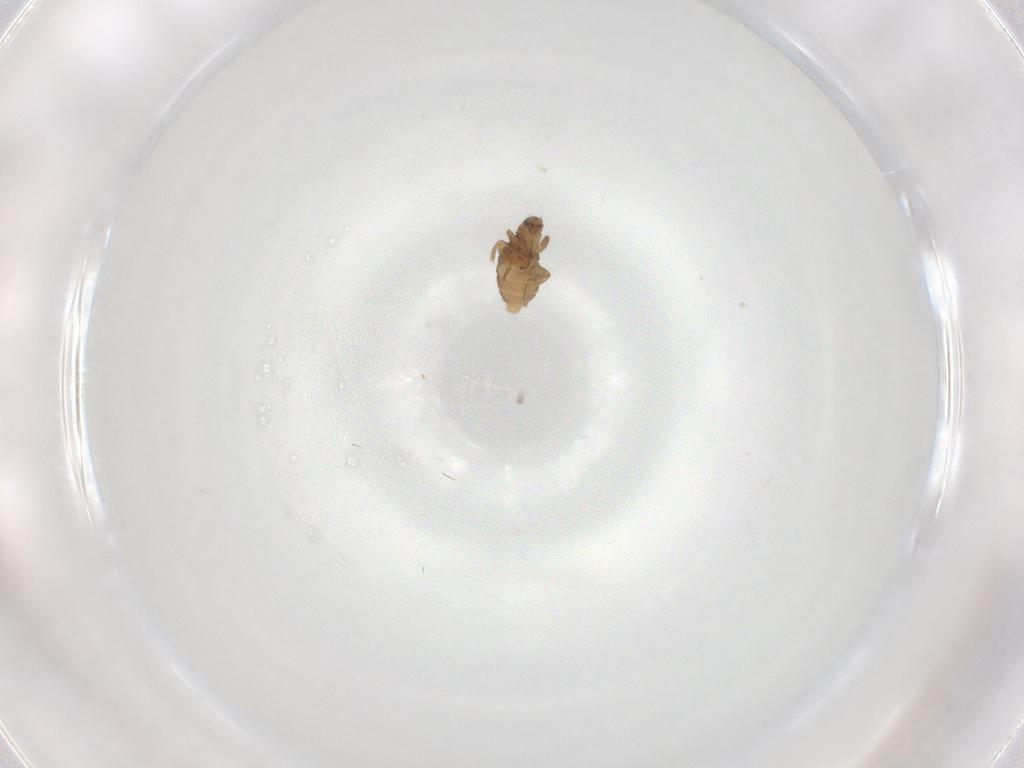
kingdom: Animalia
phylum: Arthropoda
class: Insecta
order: Diptera
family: Phoridae
